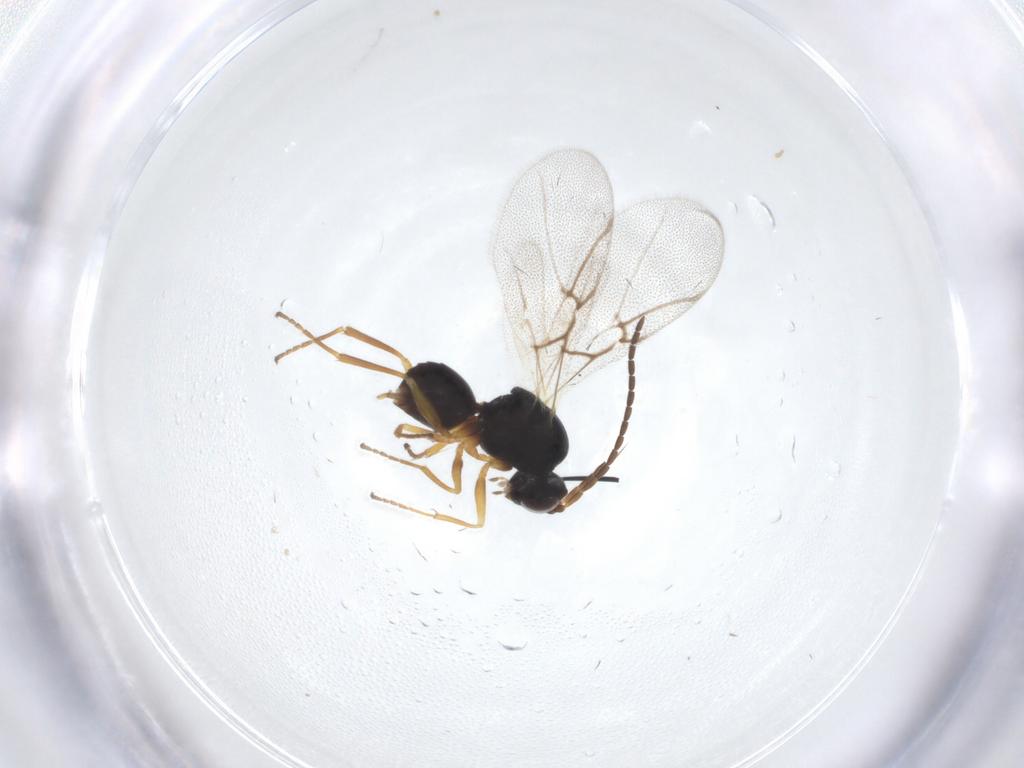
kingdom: Animalia
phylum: Arthropoda
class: Insecta
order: Hymenoptera
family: Cynipidae
